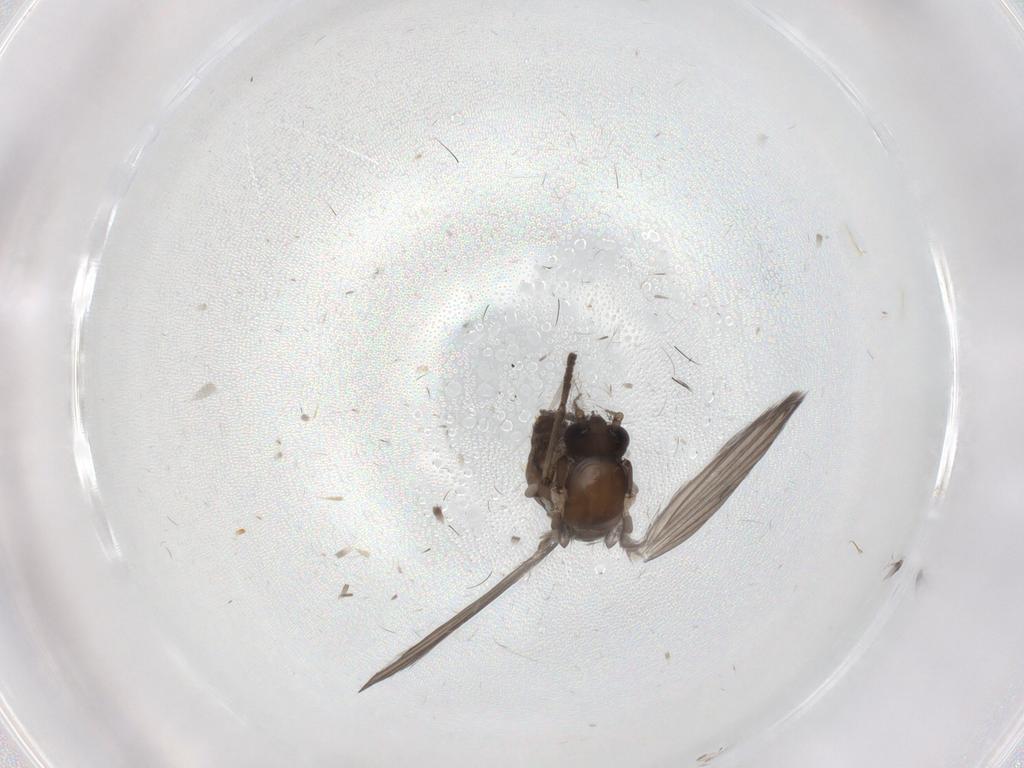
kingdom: Animalia
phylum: Arthropoda
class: Insecta
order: Diptera
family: Psychodidae
